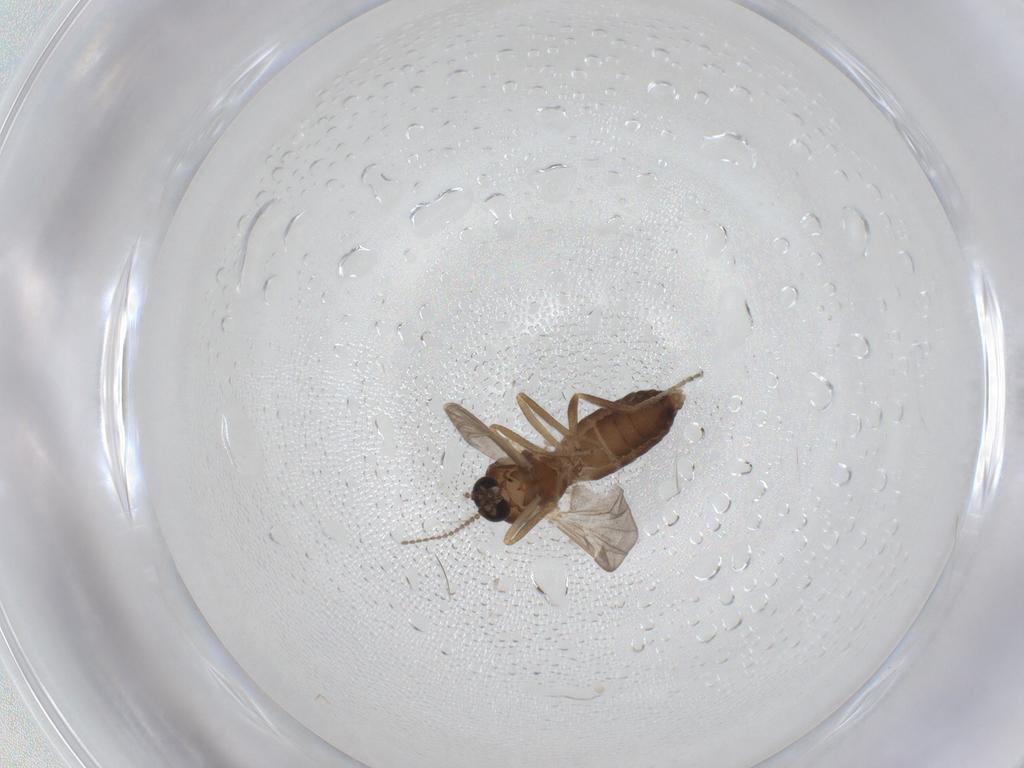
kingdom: Animalia
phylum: Arthropoda
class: Insecta
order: Diptera
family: Ceratopogonidae
